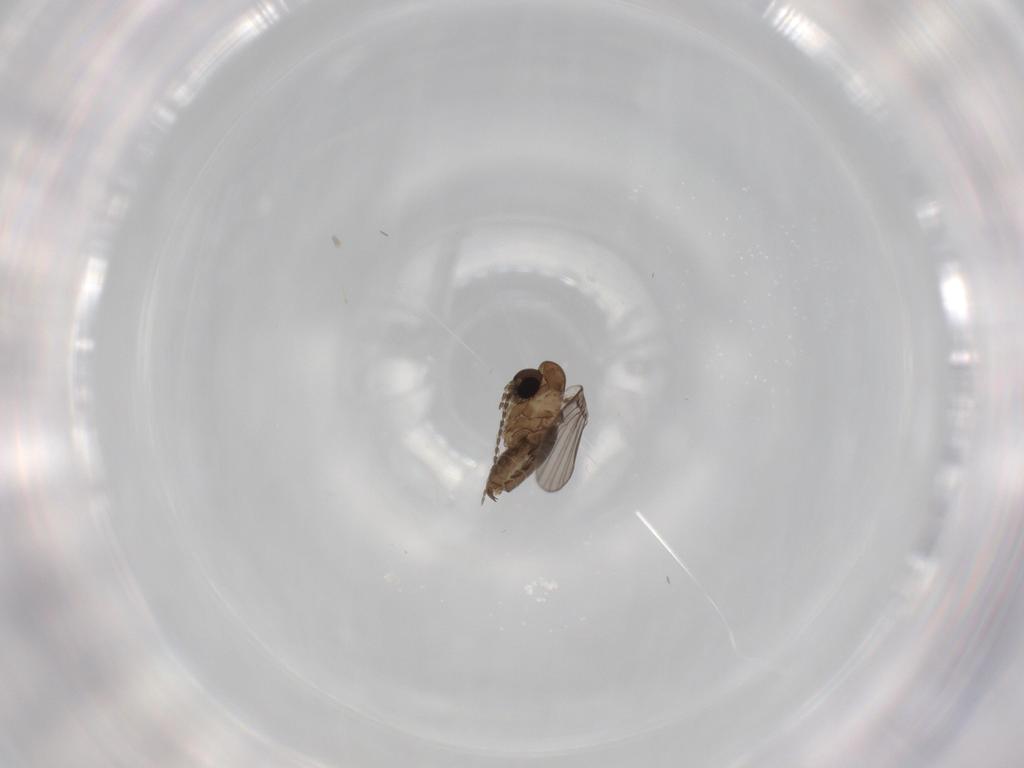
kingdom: Animalia
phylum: Arthropoda
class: Insecta
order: Diptera
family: Psychodidae
